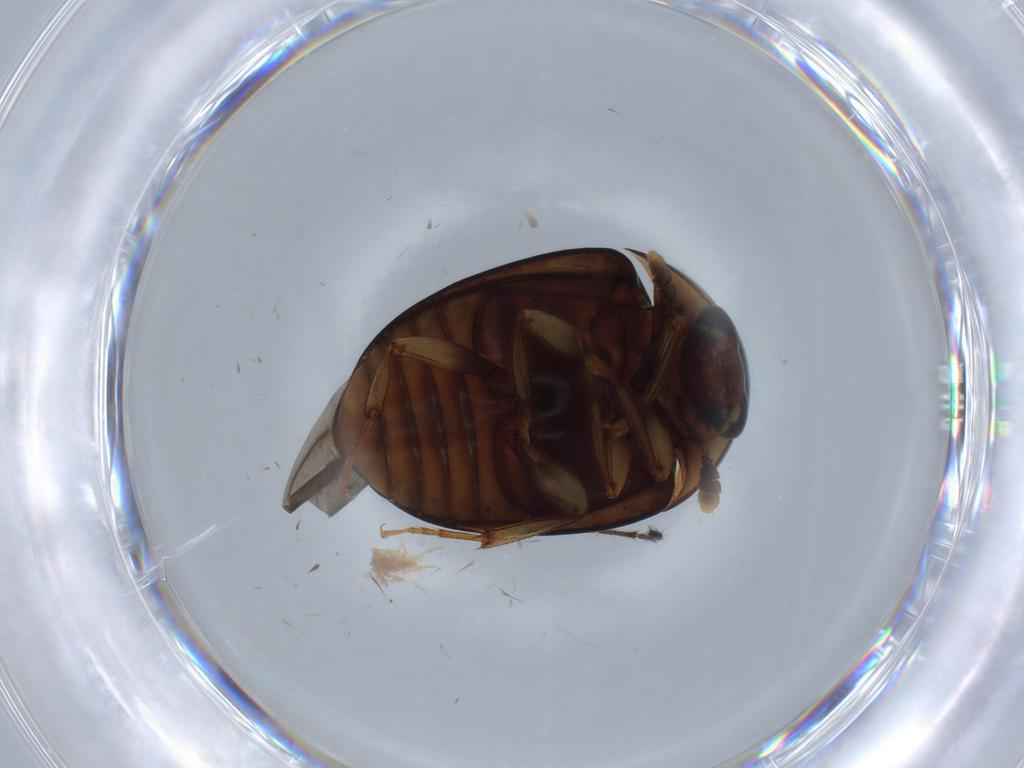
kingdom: Animalia
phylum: Arthropoda
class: Insecta
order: Coleoptera
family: Nitidulidae
